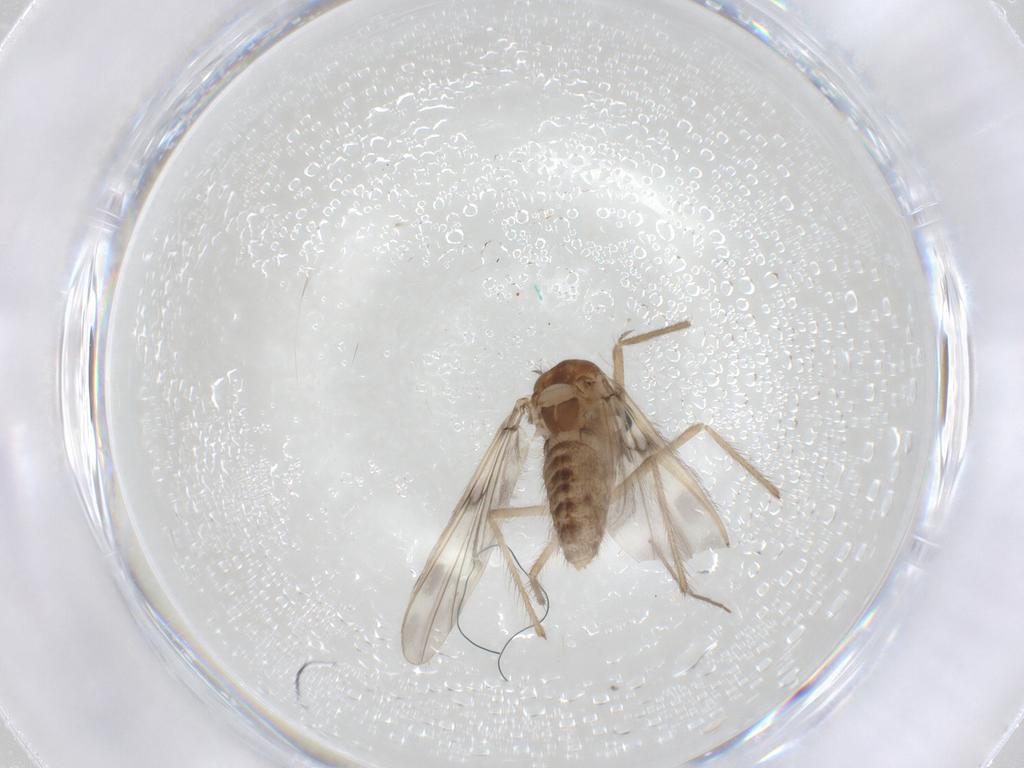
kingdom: Animalia
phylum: Arthropoda
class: Insecta
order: Diptera
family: Chironomidae
